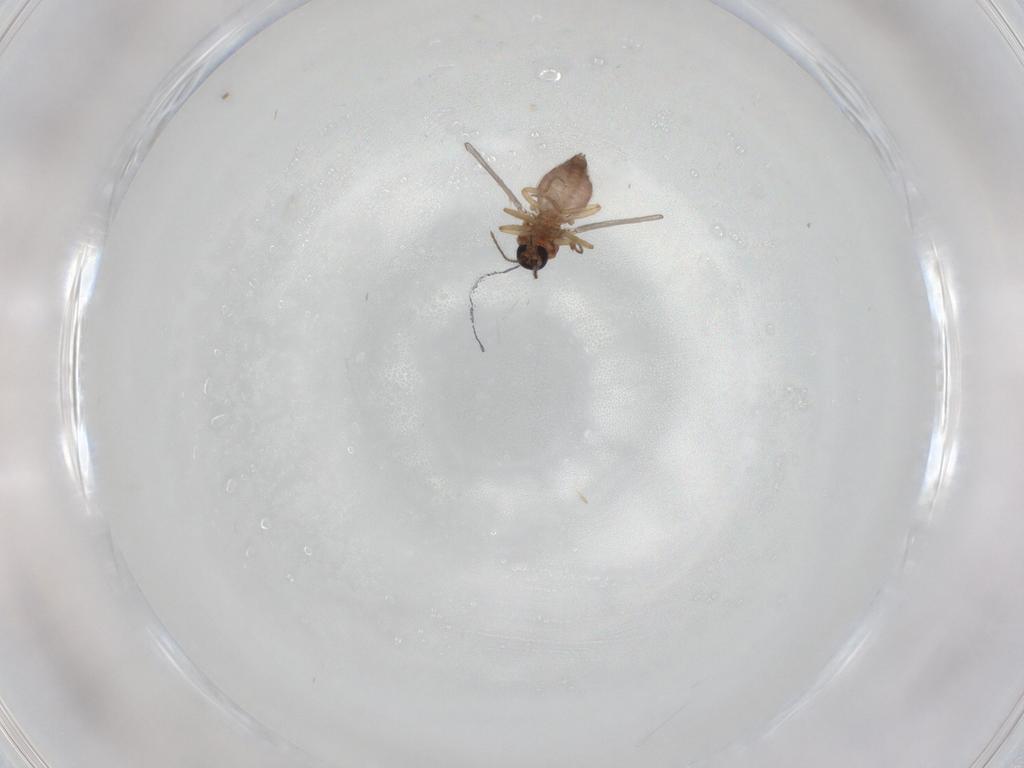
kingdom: Animalia
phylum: Arthropoda
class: Insecta
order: Diptera
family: Ceratopogonidae
